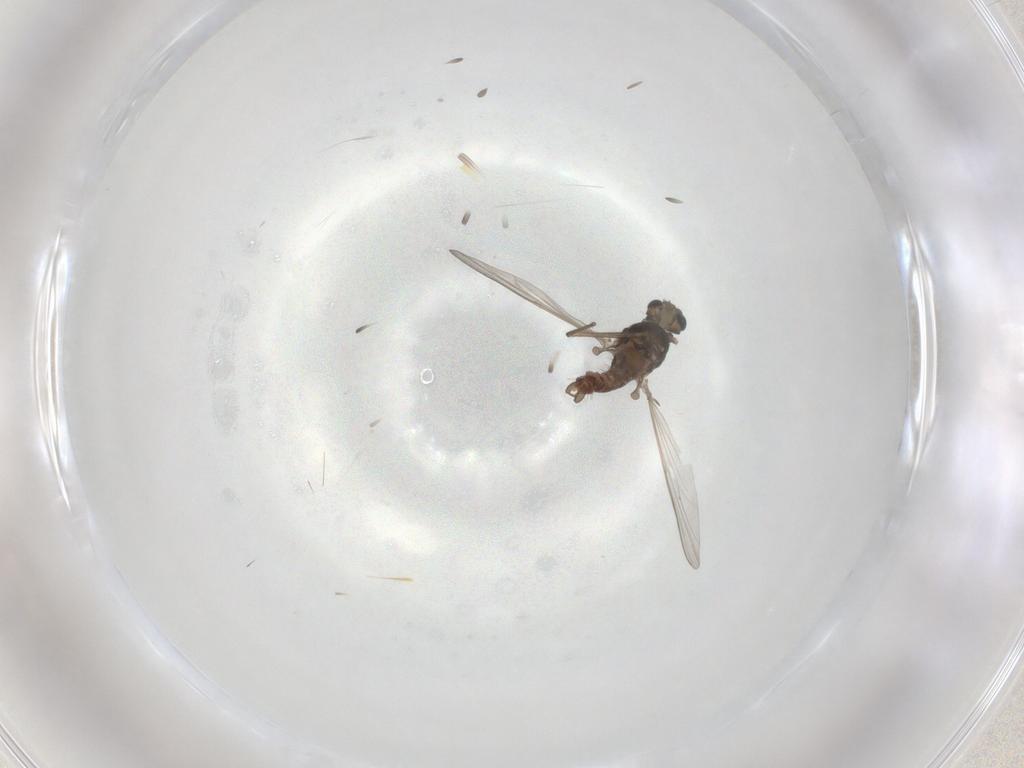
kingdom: Animalia
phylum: Arthropoda
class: Insecta
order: Diptera
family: Chironomidae
